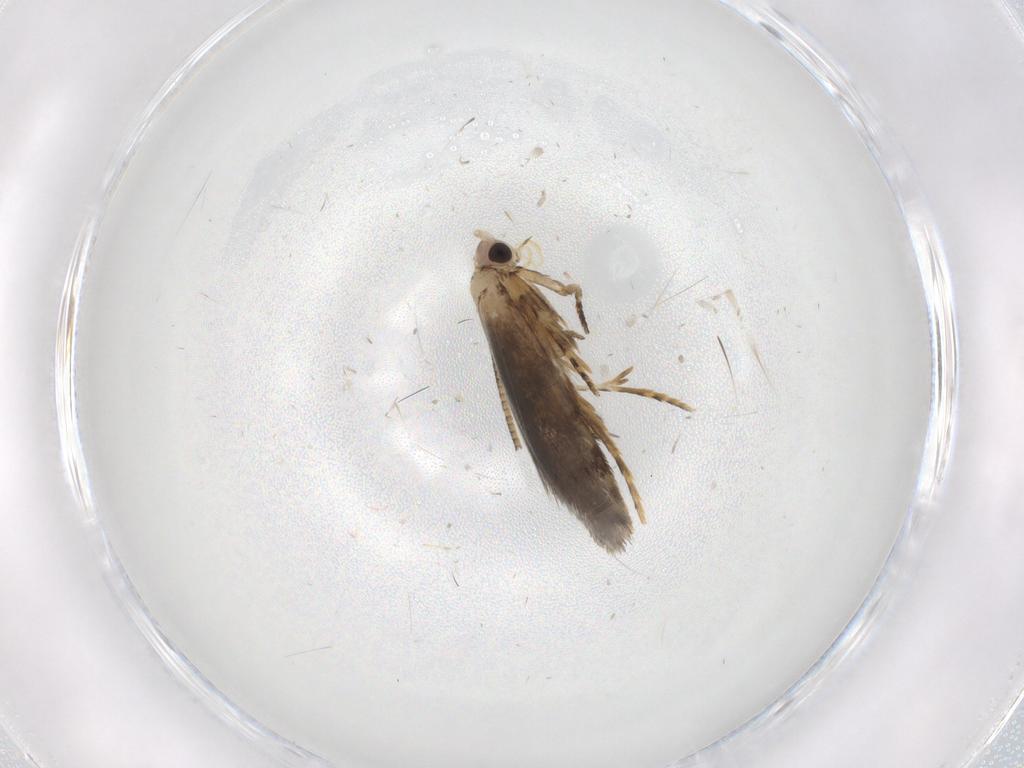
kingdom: Animalia
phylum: Arthropoda
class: Insecta
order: Lepidoptera
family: Tineidae
